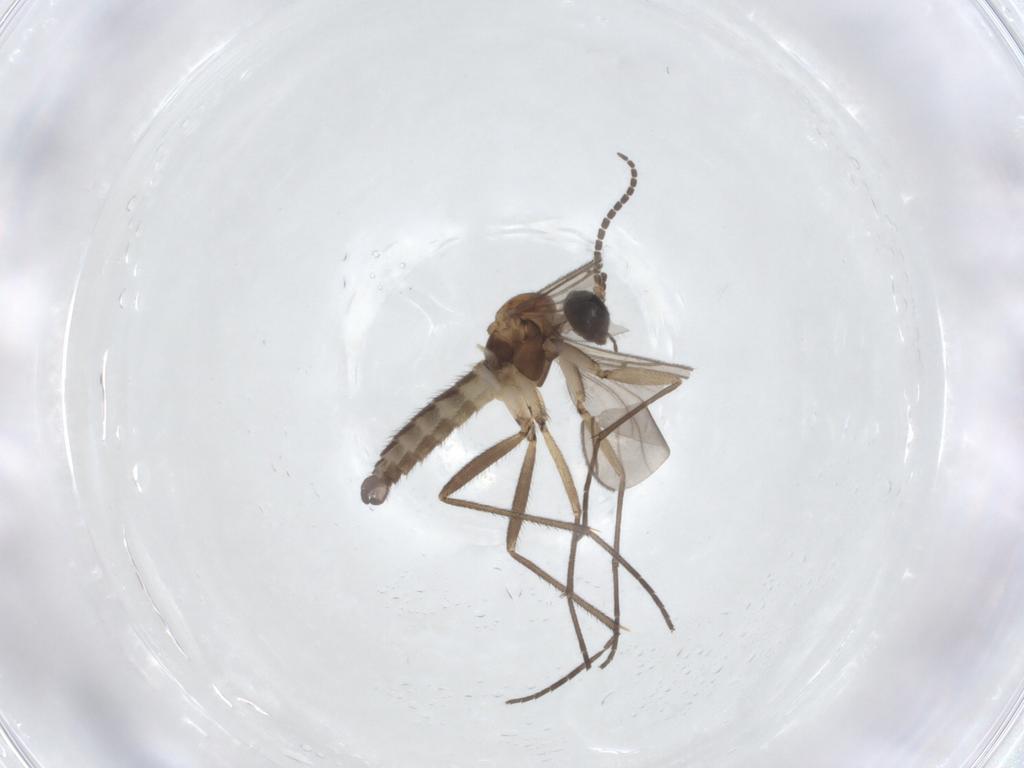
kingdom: Animalia
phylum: Arthropoda
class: Insecta
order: Diptera
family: Sciaridae
